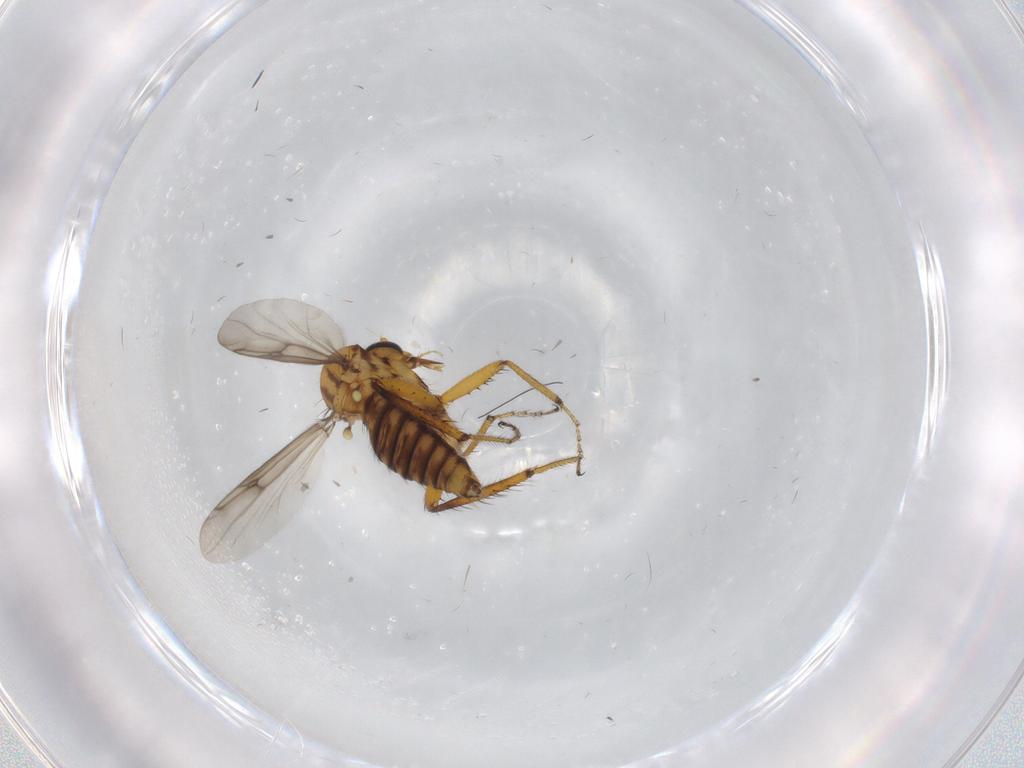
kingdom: Animalia
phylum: Arthropoda
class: Insecta
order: Diptera
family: Ceratopogonidae
